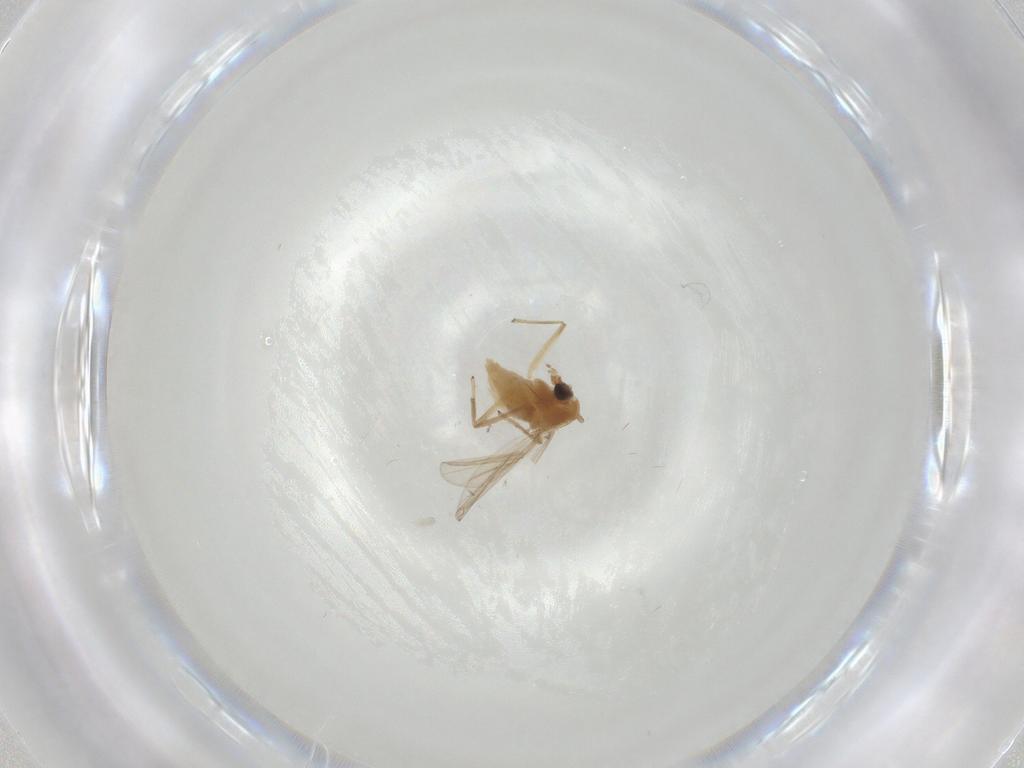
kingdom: Animalia
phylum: Arthropoda
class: Insecta
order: Diptera
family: Chironomidae
